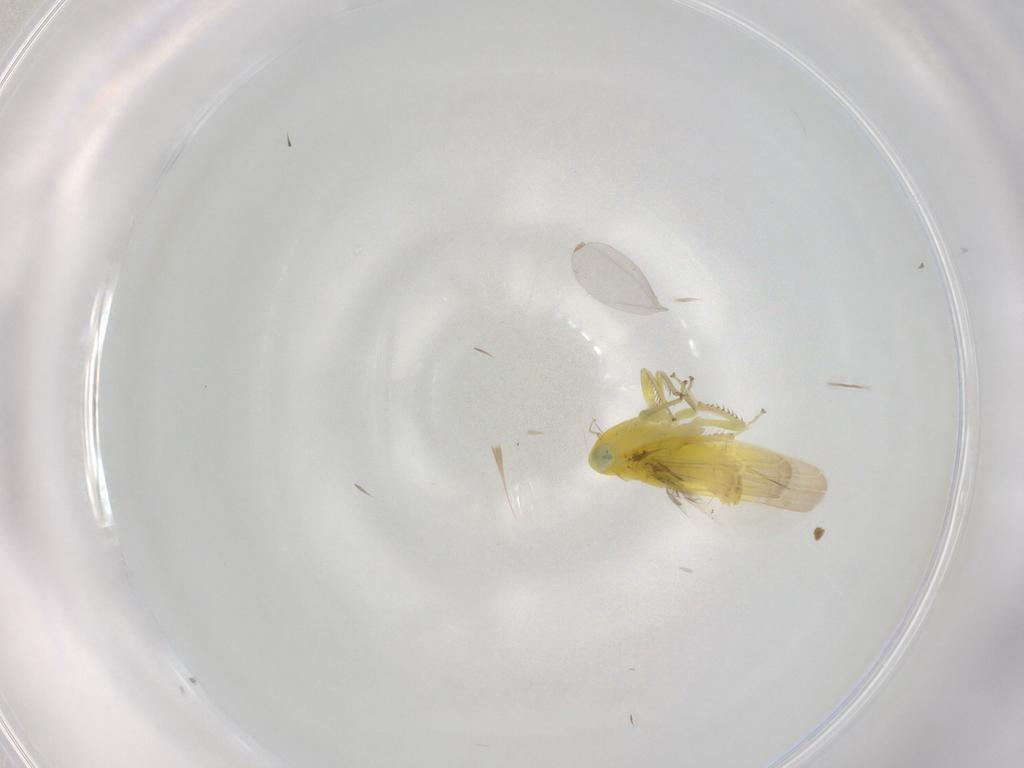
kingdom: Animalia
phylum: Arthropoda
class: Insecta
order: Hemiptera
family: Cicadellidae
